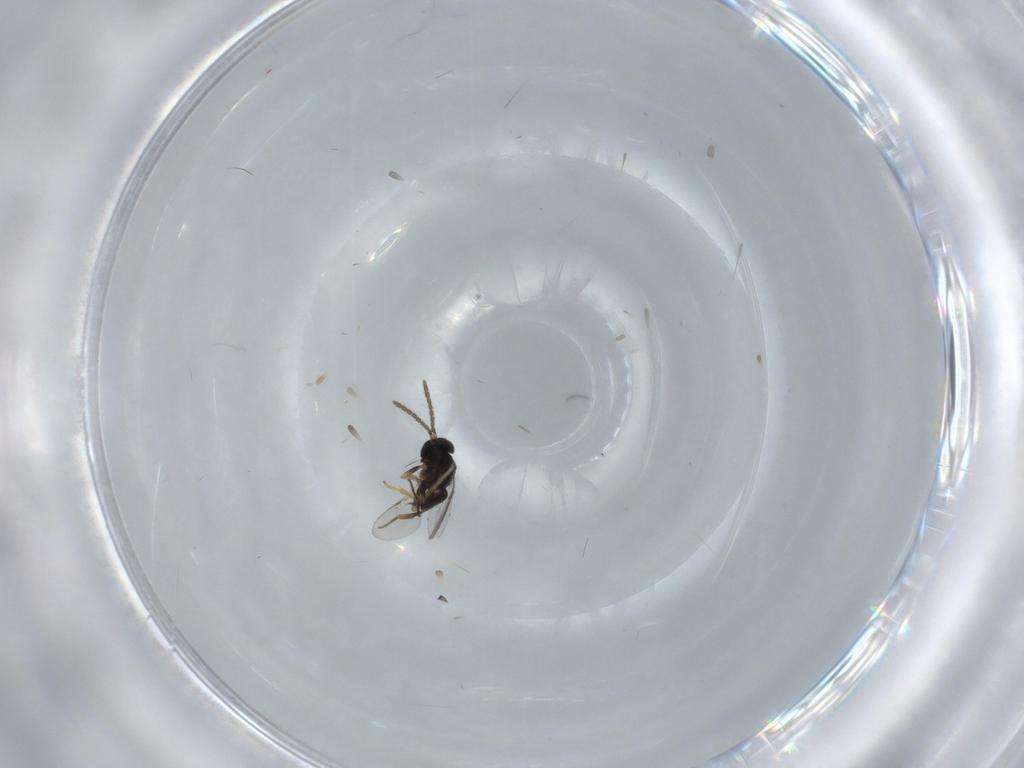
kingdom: Animalia
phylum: Arthropoda
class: Insecta
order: Hymenoptera
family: Encyrtidae
